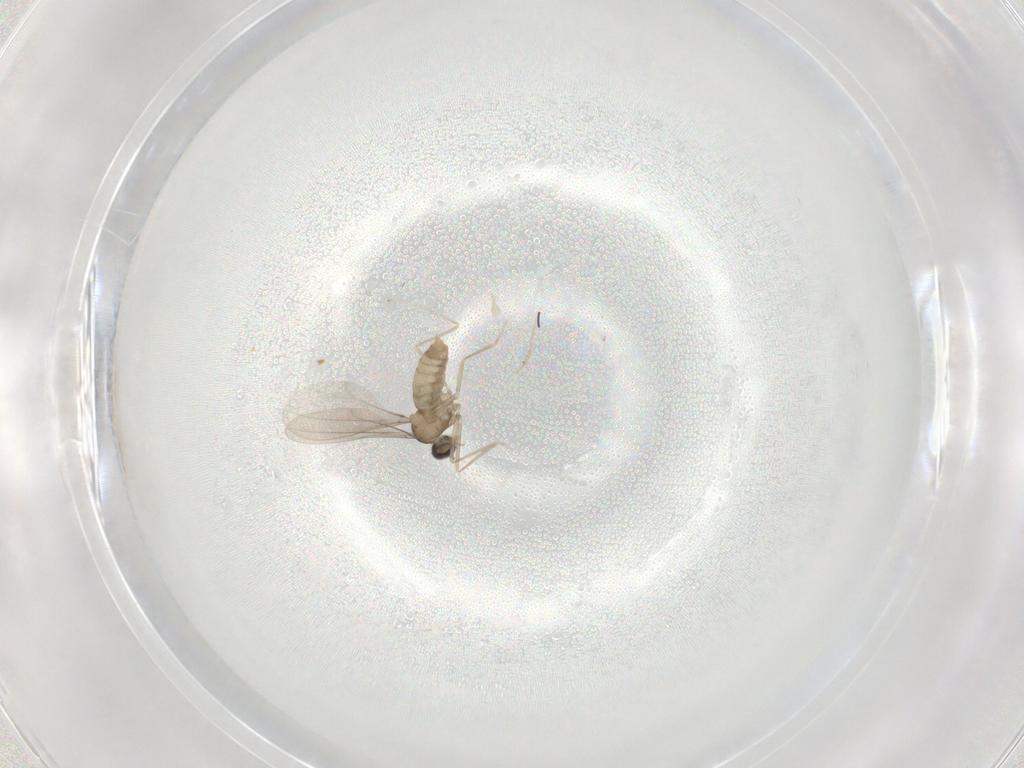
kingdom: Animalia
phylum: Arthropoda
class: Insecta
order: Diptera
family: Cecidomyiidae
